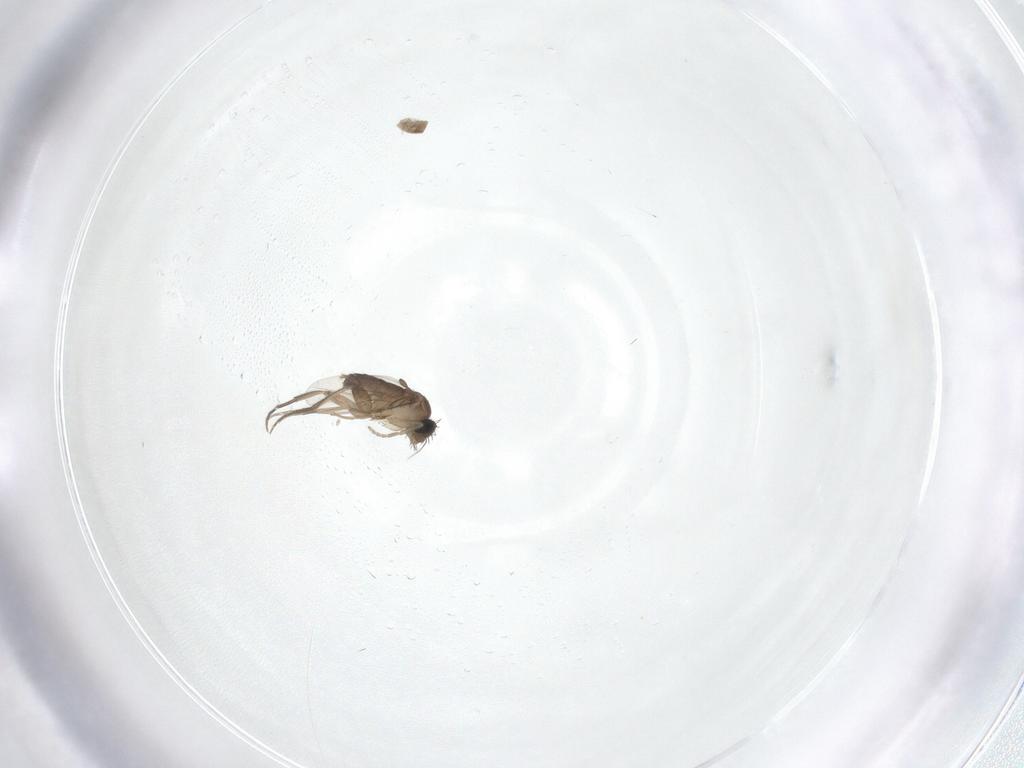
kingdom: Animalia
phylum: Arthropoda
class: Insecta
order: Diptera
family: Phoridae
